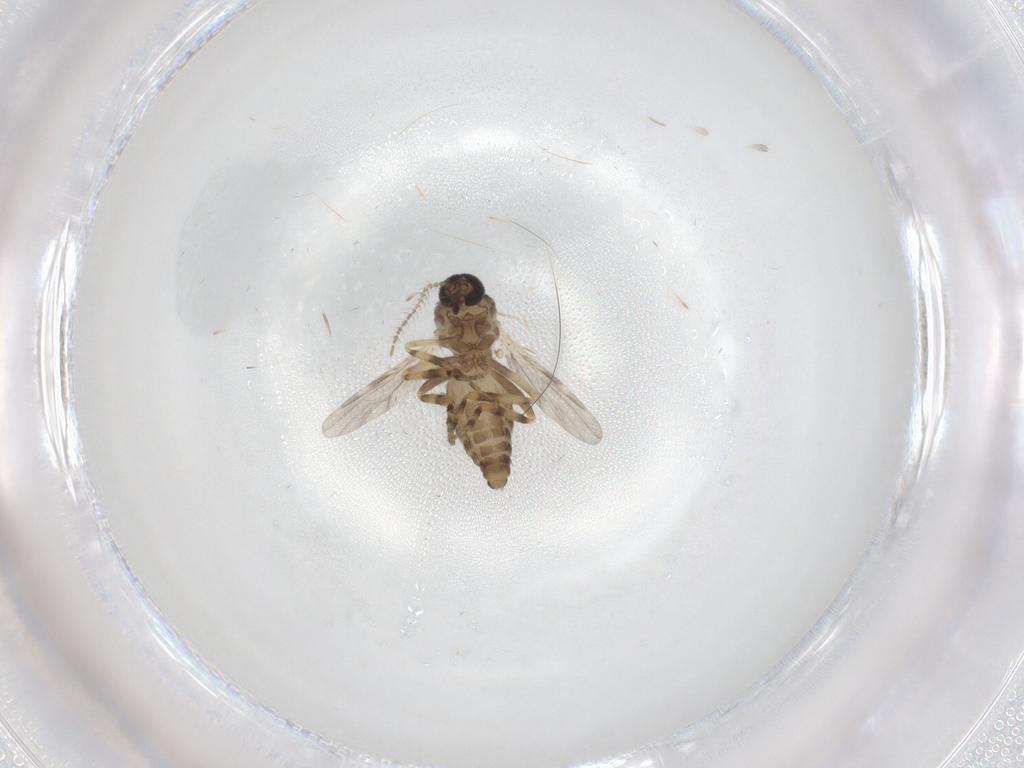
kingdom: Animalia
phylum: Arthropoda
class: Insecta
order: Diptera
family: Ceratopogonidae
